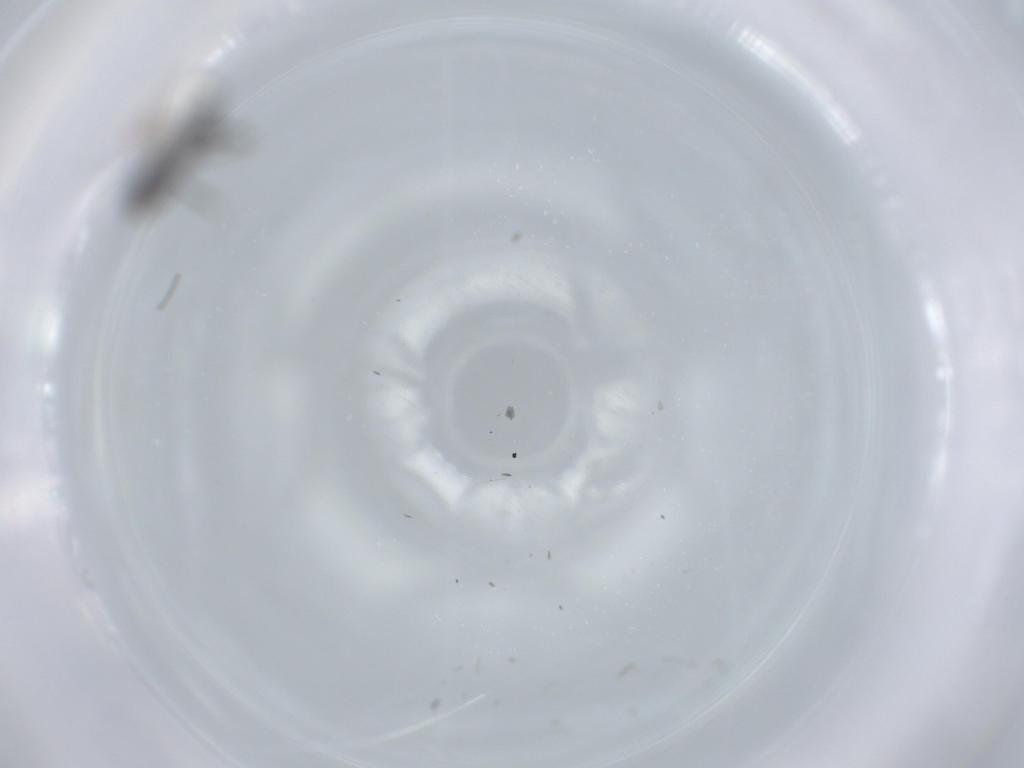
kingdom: Animalia
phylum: Arthropoda
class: Insecta
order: Diptera
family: Chironomidae
